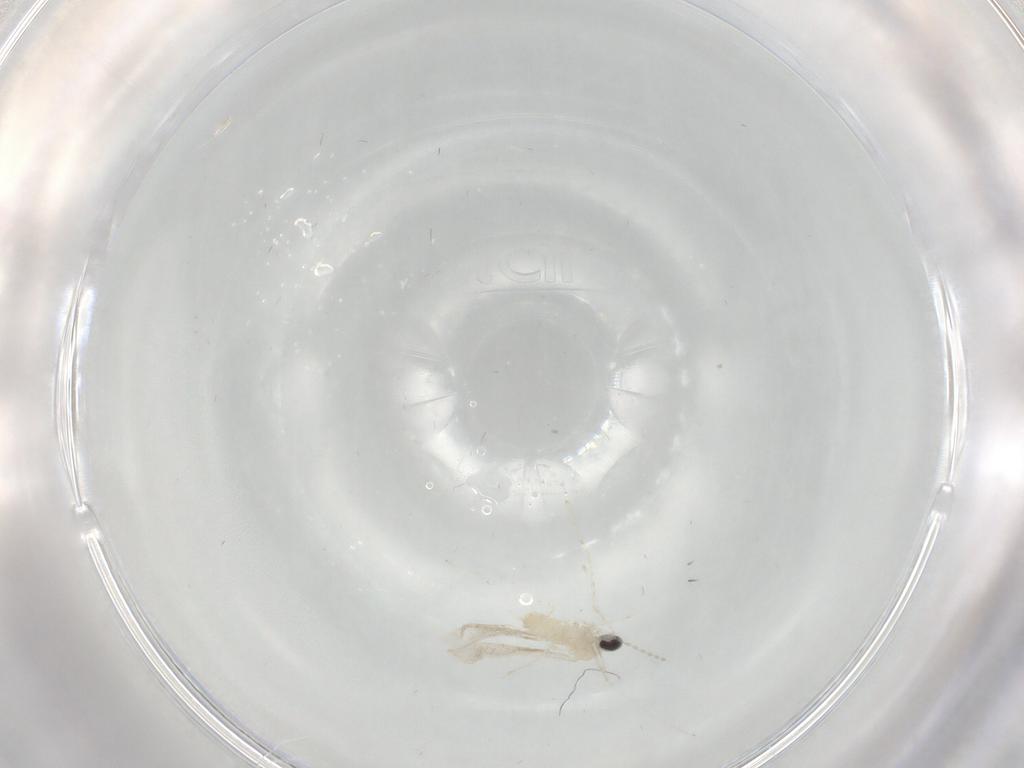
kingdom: Animalia
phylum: Arthropoda
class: Insecta
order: Diptera
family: Cecidomyiidae
